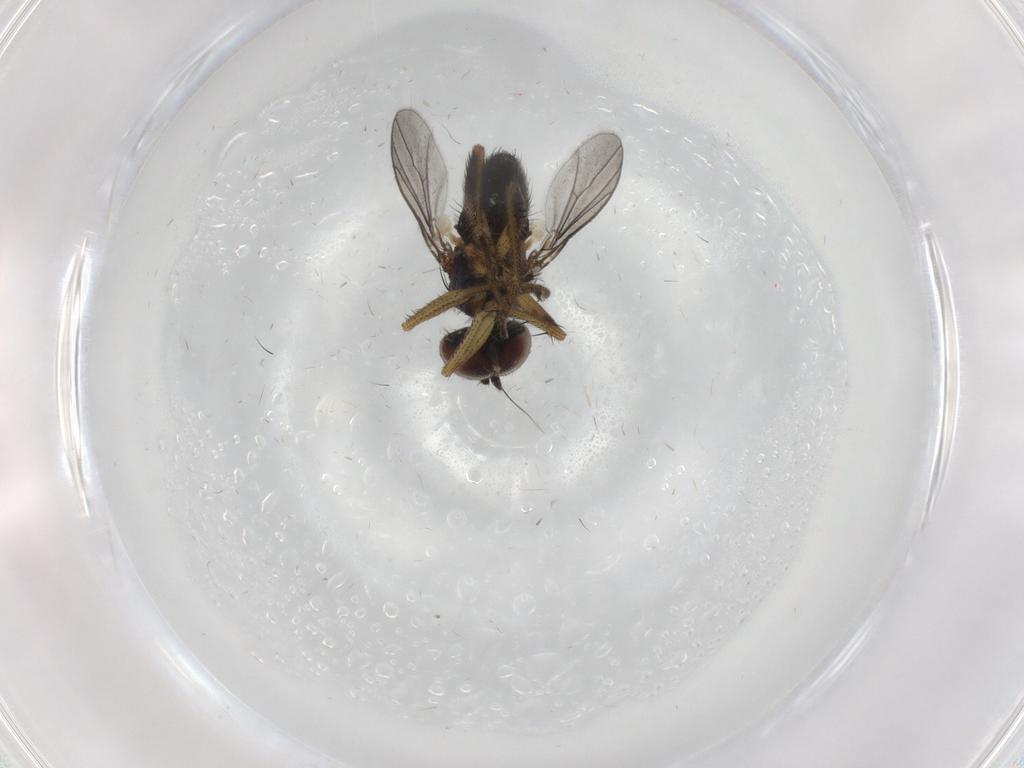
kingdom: Animalia
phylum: Arthropoda
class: Insecta
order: Diptera
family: Dolichopodidae
